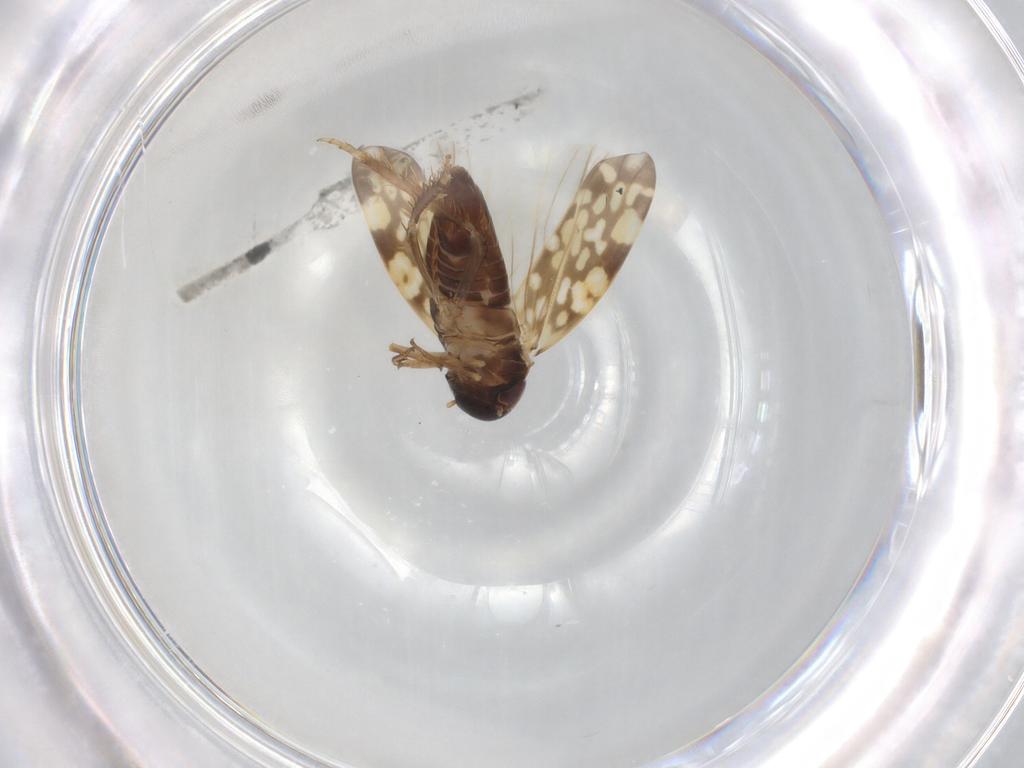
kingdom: Animalia
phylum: Arthropoda
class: Insecta
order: Hemiptera
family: Cicadellidae
